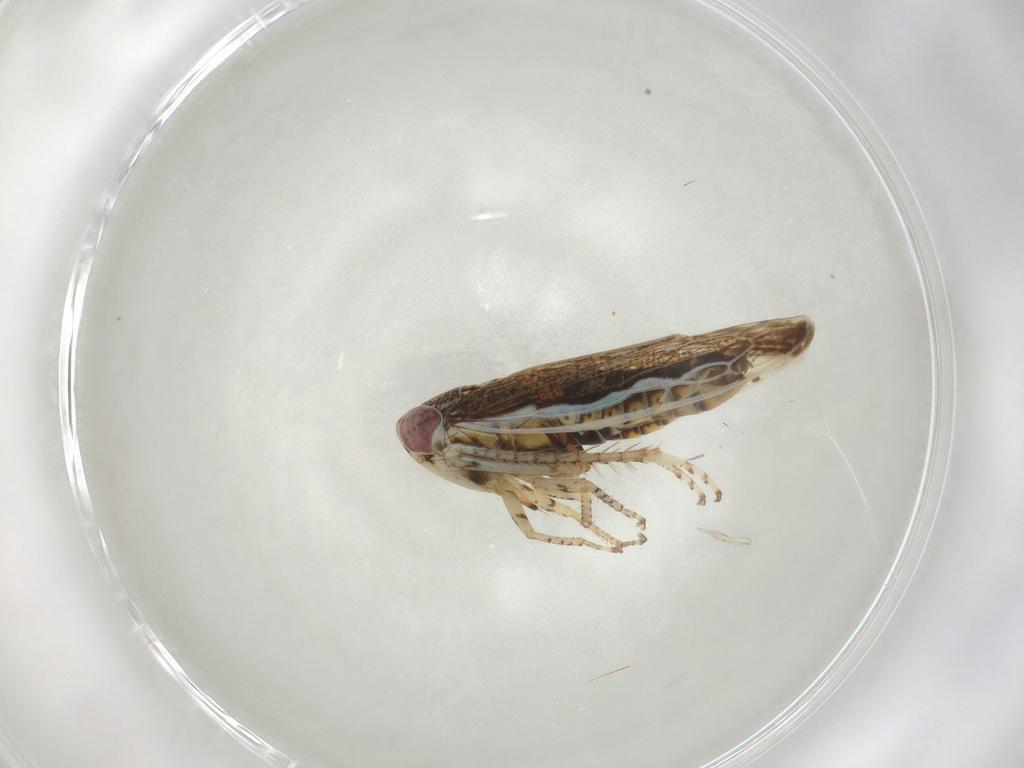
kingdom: Animalia
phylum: Arthropoda
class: Insecta
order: Hemiptera
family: Cicadellidae
